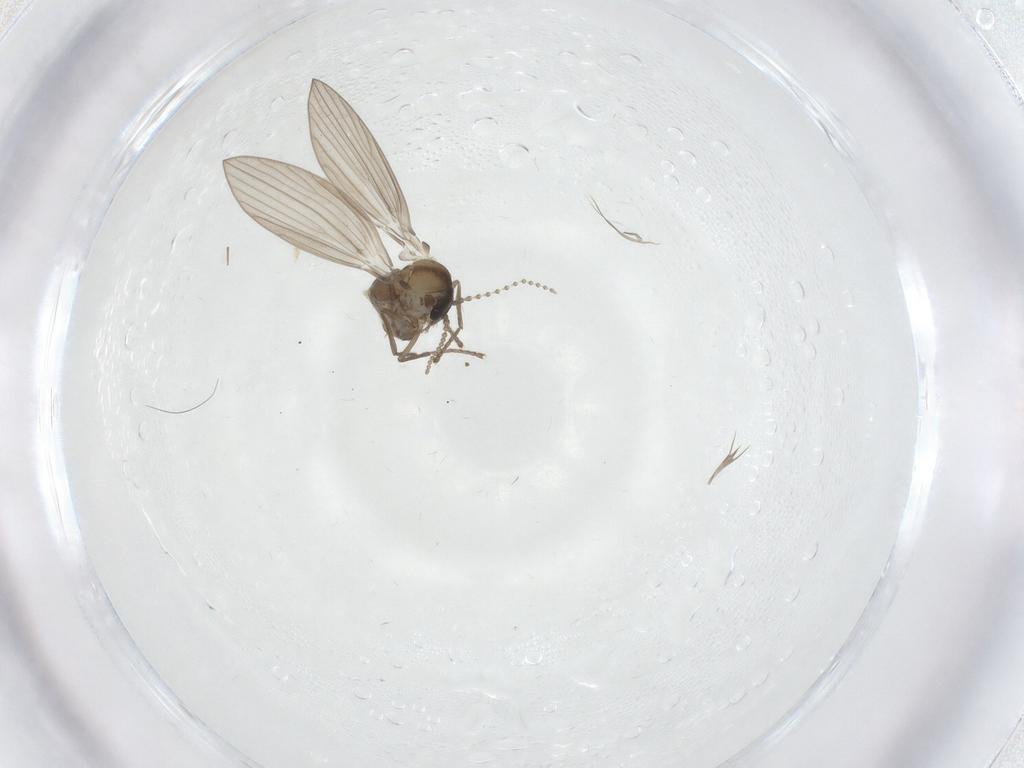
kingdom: Animalia
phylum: Arthropoda
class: Insecta
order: Diptera
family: Psychodidae
